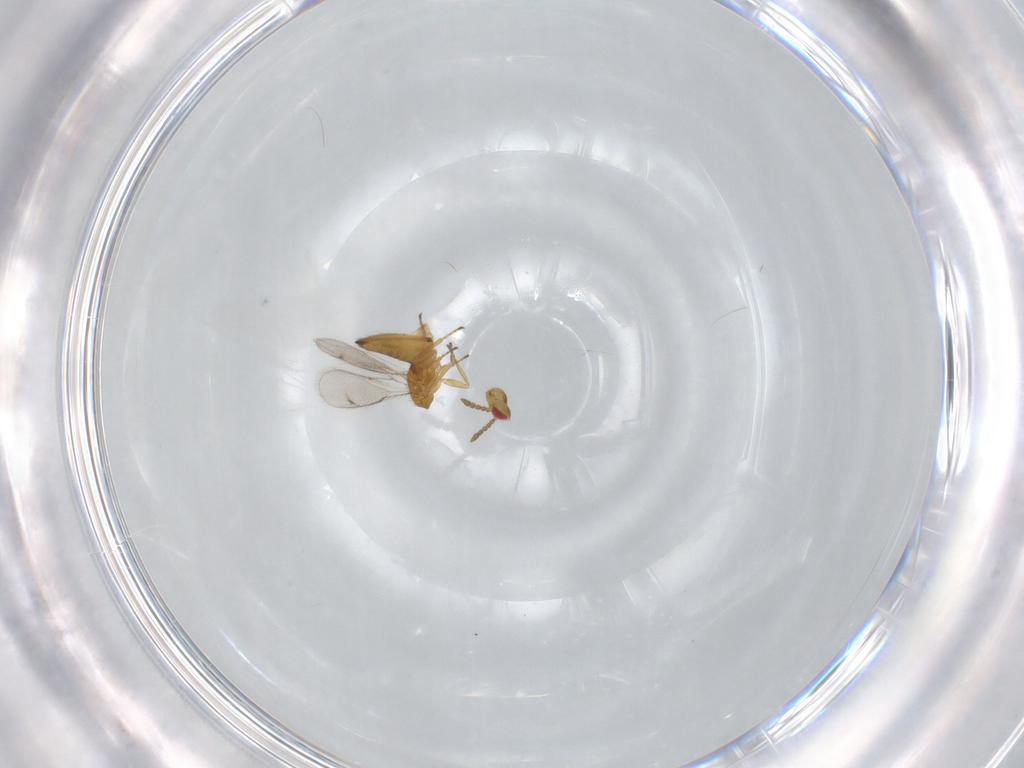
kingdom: Animalia
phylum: Arthropoda
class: Insecta
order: Hymenoptera
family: Eulophidae
